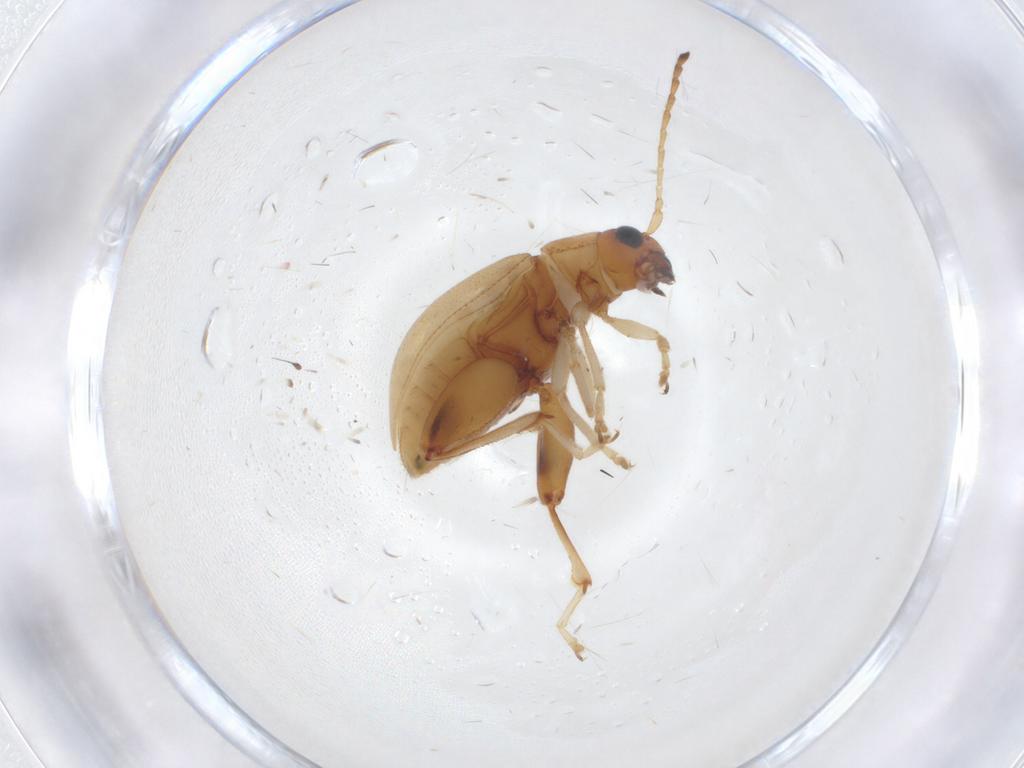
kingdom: Animalia
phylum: Arthropoda
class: Insecta
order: Coleoptera
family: Chrysomelidae
